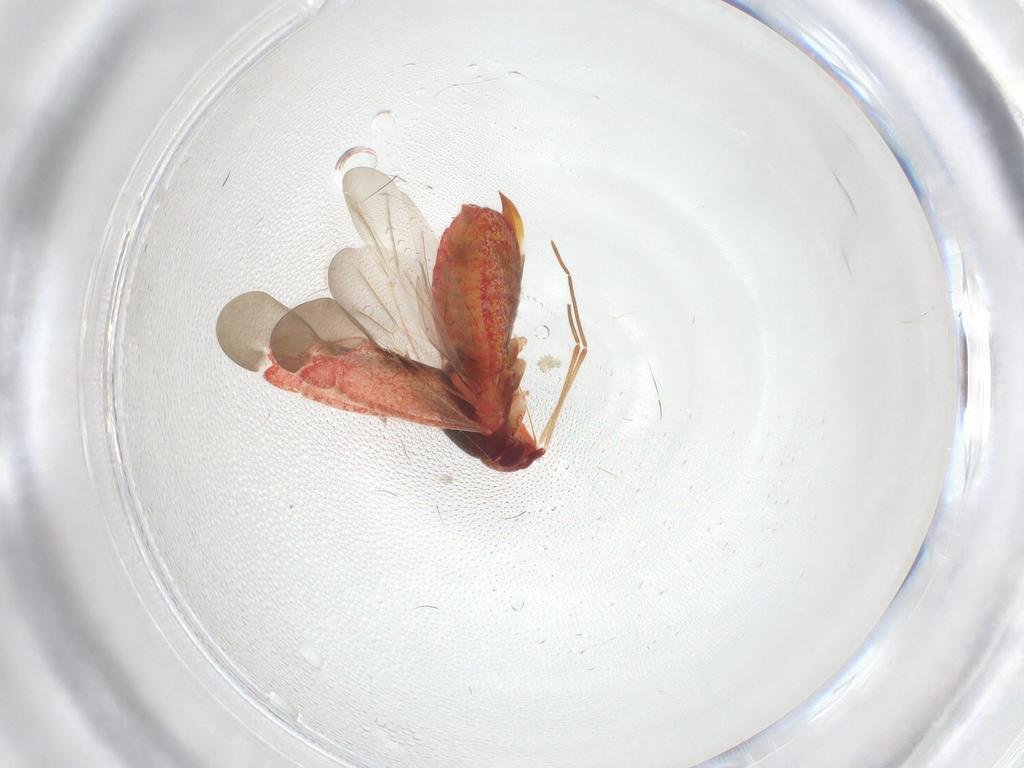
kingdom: Animalia
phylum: Arthropoda
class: Insecta
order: Hemiptera
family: Miridae
